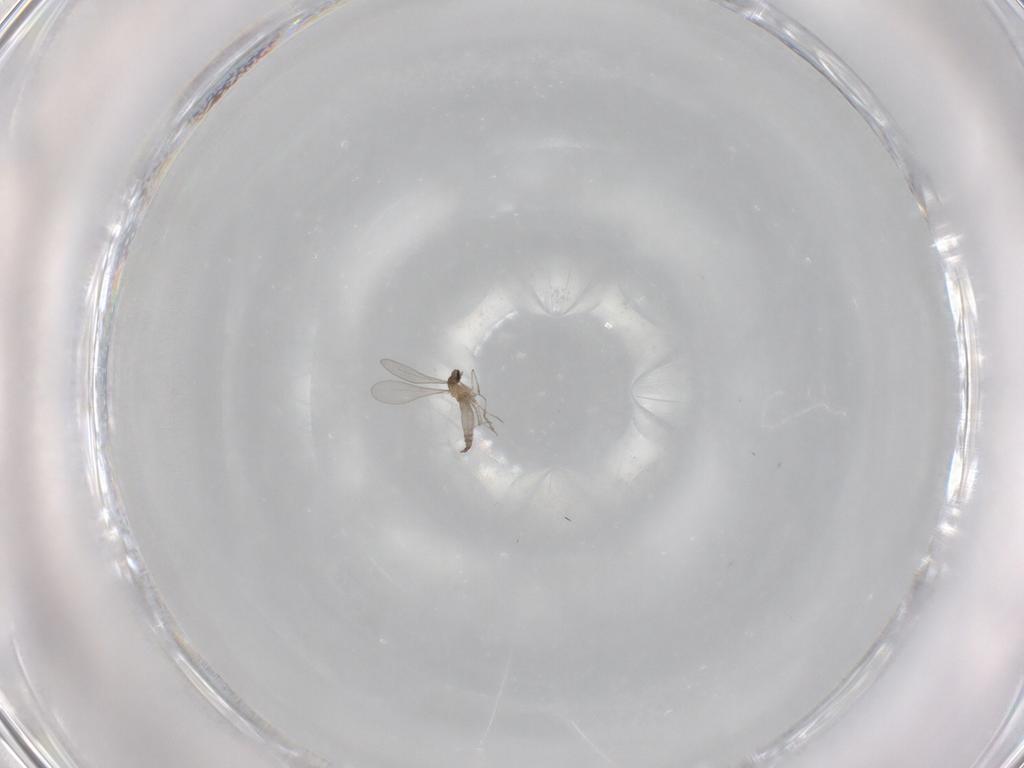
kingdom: Animalia
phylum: Arthropoda
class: Insecta
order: Diptera
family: Cecidomyiidae
